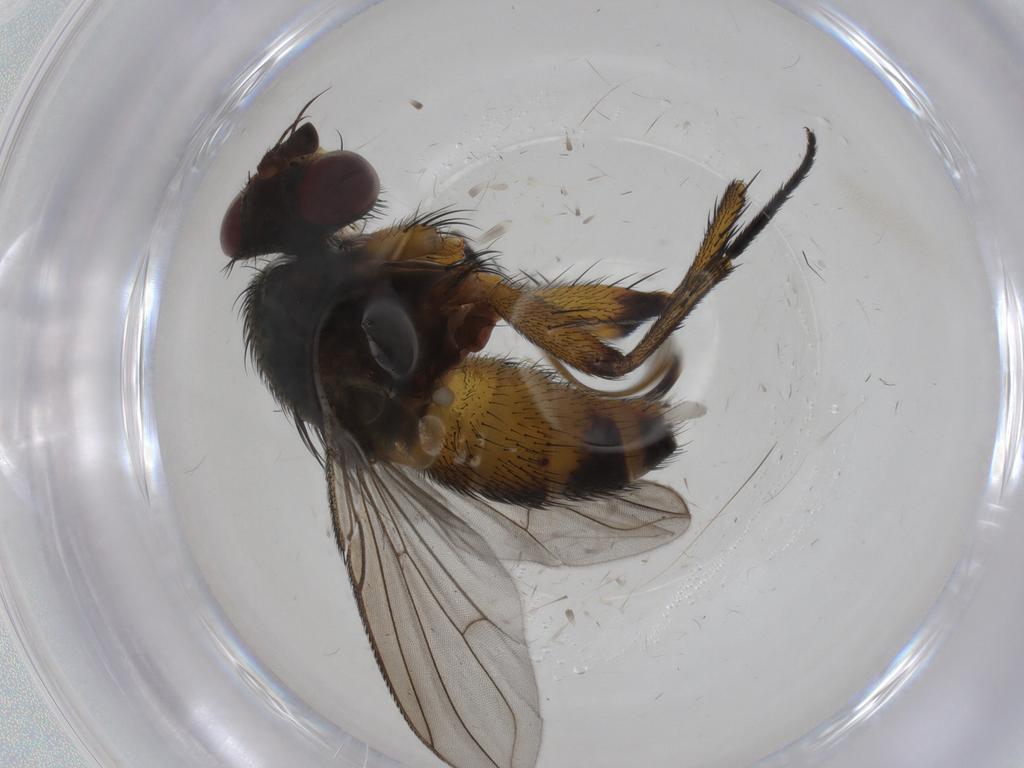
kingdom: Animalia
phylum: Arthropoda
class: Insecta
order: Diptera
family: Tachinidae
